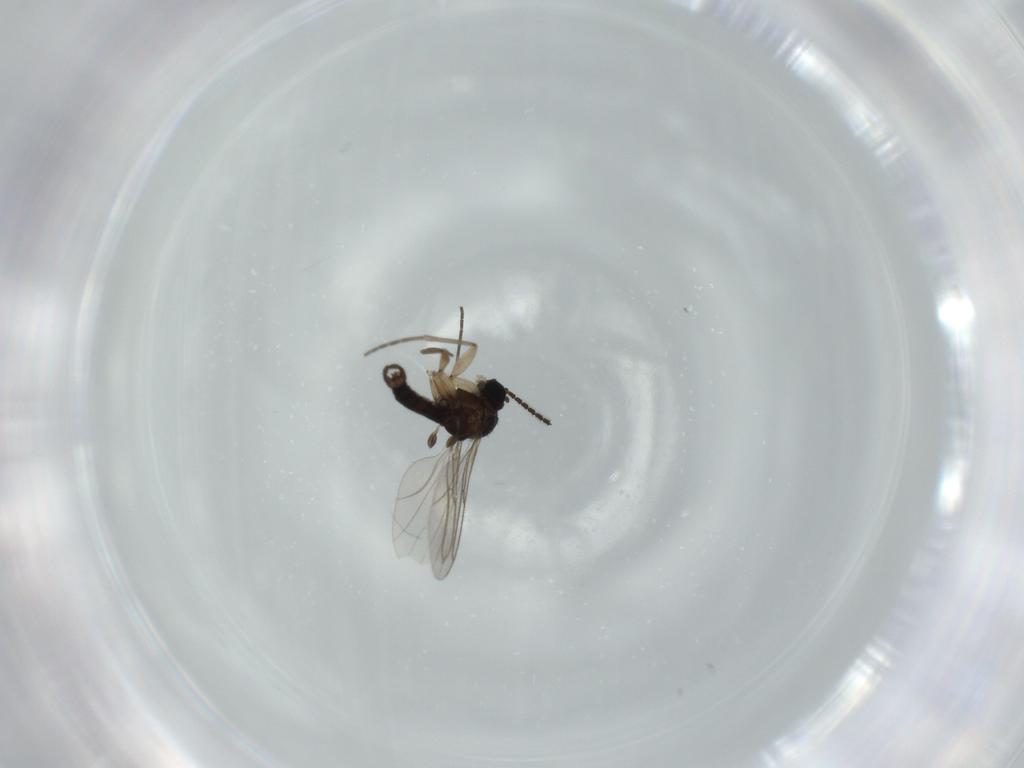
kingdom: Animalia
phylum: Arthropoda
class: Insecta
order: Diptera
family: Sciaridae
